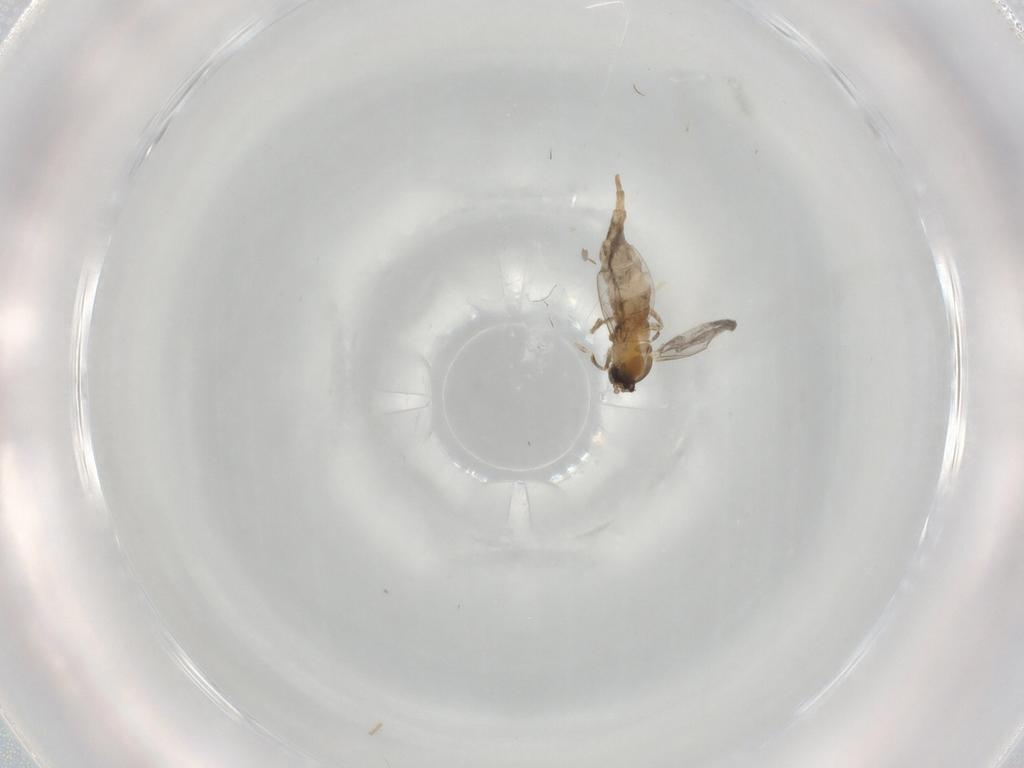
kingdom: Animalia
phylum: Arthropoda
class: Insecta
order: Diptera
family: Cecidomyiidae
